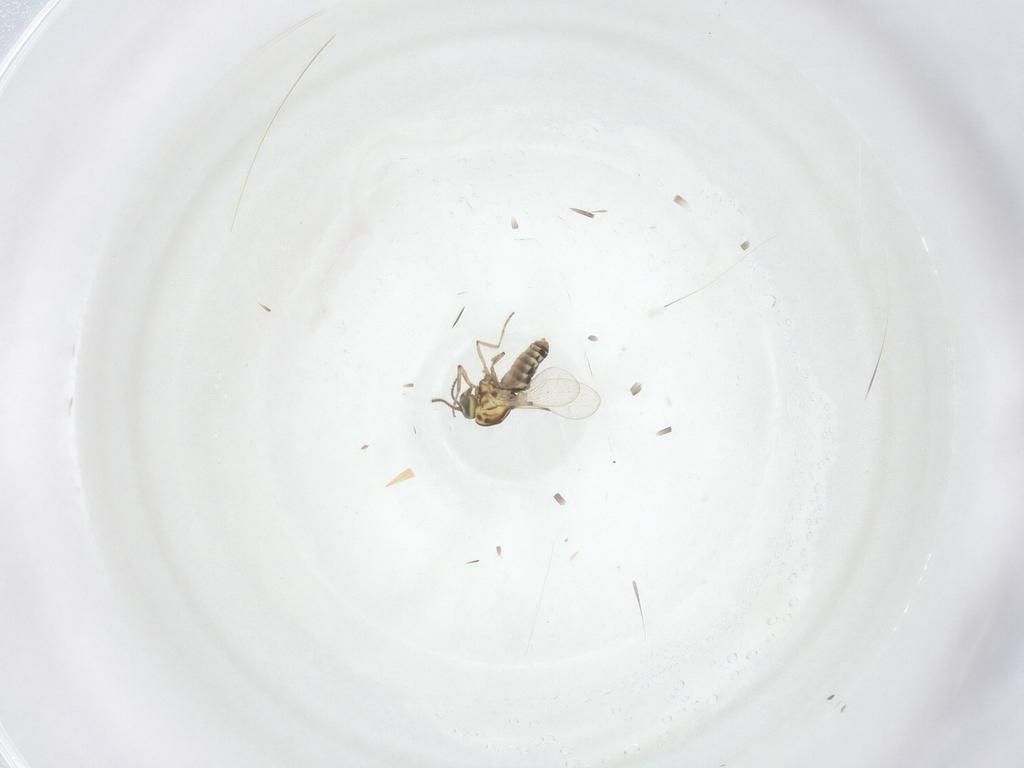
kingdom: Animalia
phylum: Arthropoda
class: Insecta
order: Diptera
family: Cecidomyiidae
